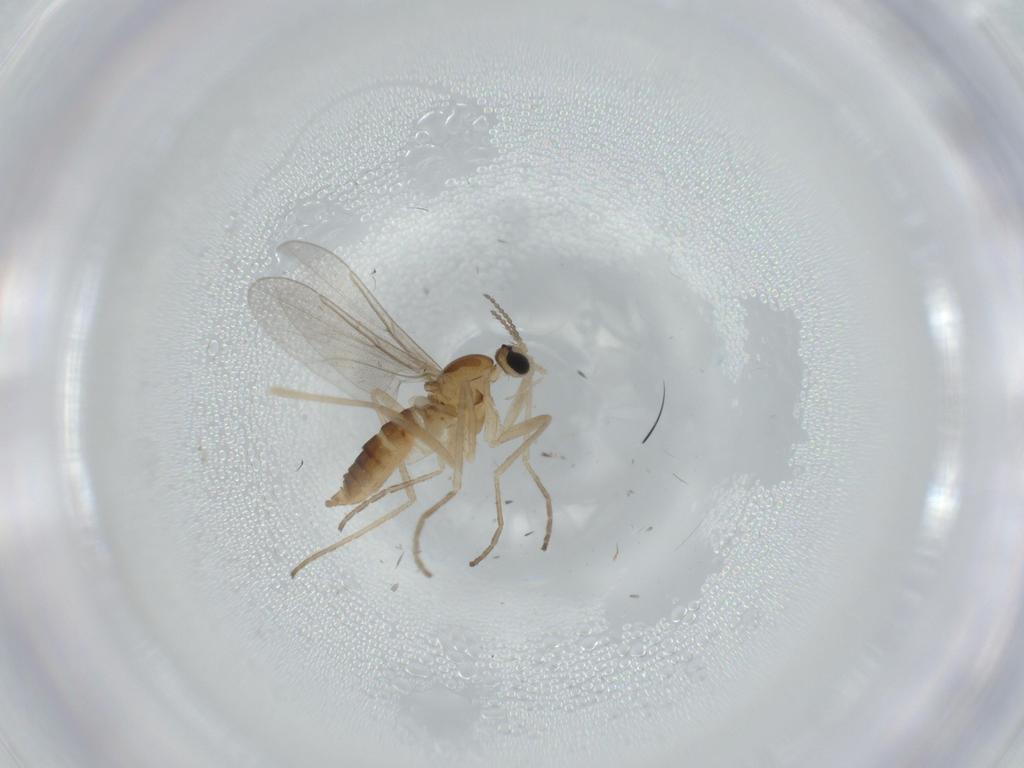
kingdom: Animalia
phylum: Arthropoda
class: Insecta
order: Diptera
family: Cecidomyiidae
